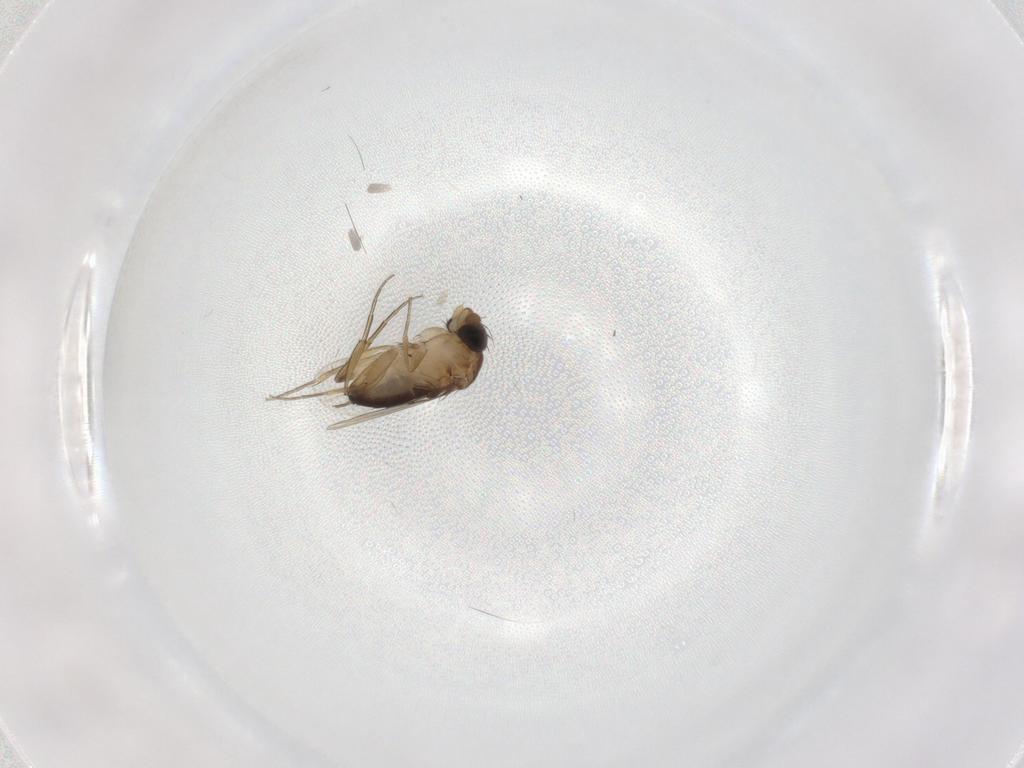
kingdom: Animalia
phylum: Arthropoda
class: Insecta
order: Diptera
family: Phoridae
